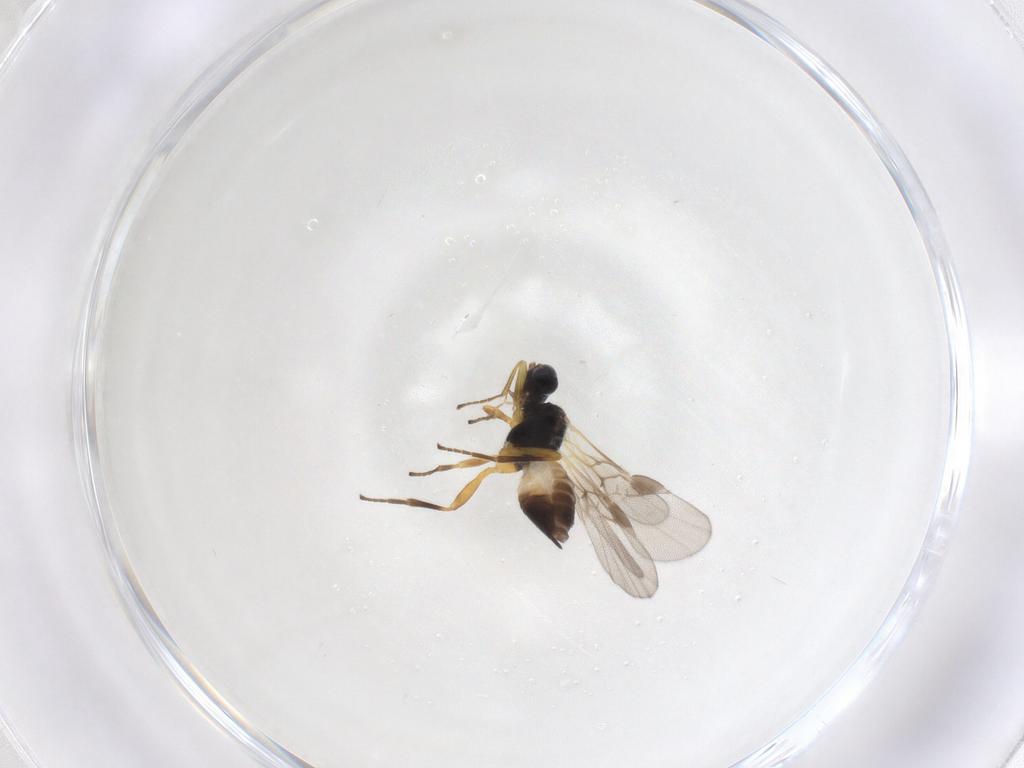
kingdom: Animalia
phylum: Arthropoda
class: Insecta
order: Hymenoptera
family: Braconidae
